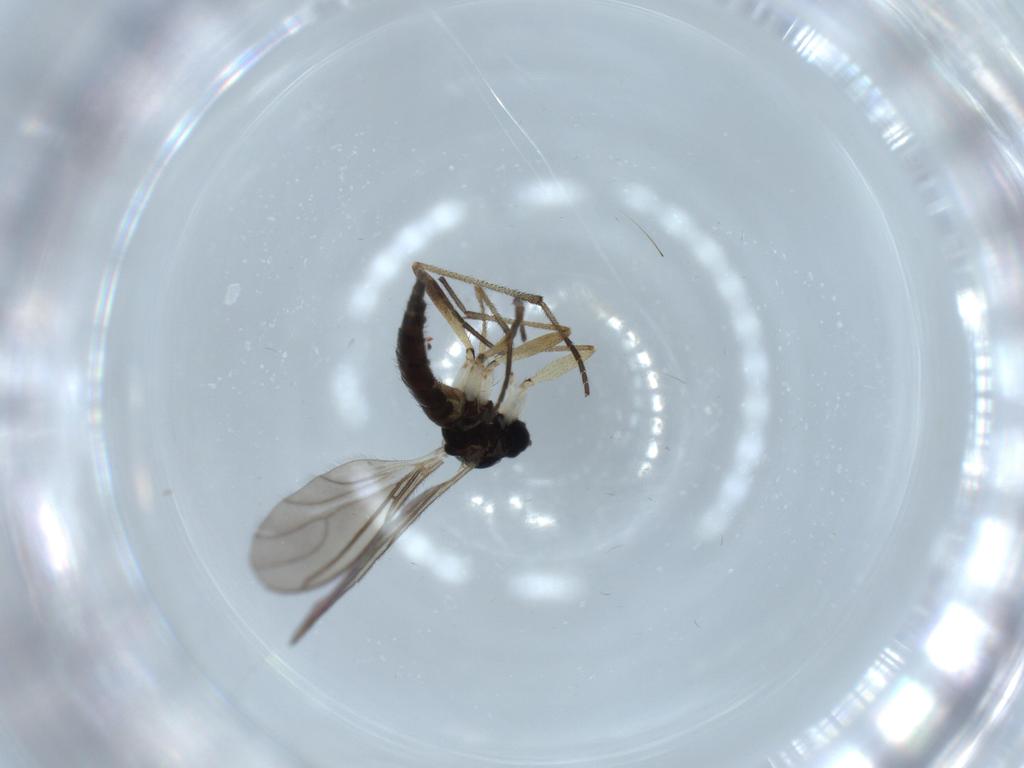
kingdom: Animalia
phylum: Arthropoda
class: Insecta
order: Diptera
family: Sciaridae
